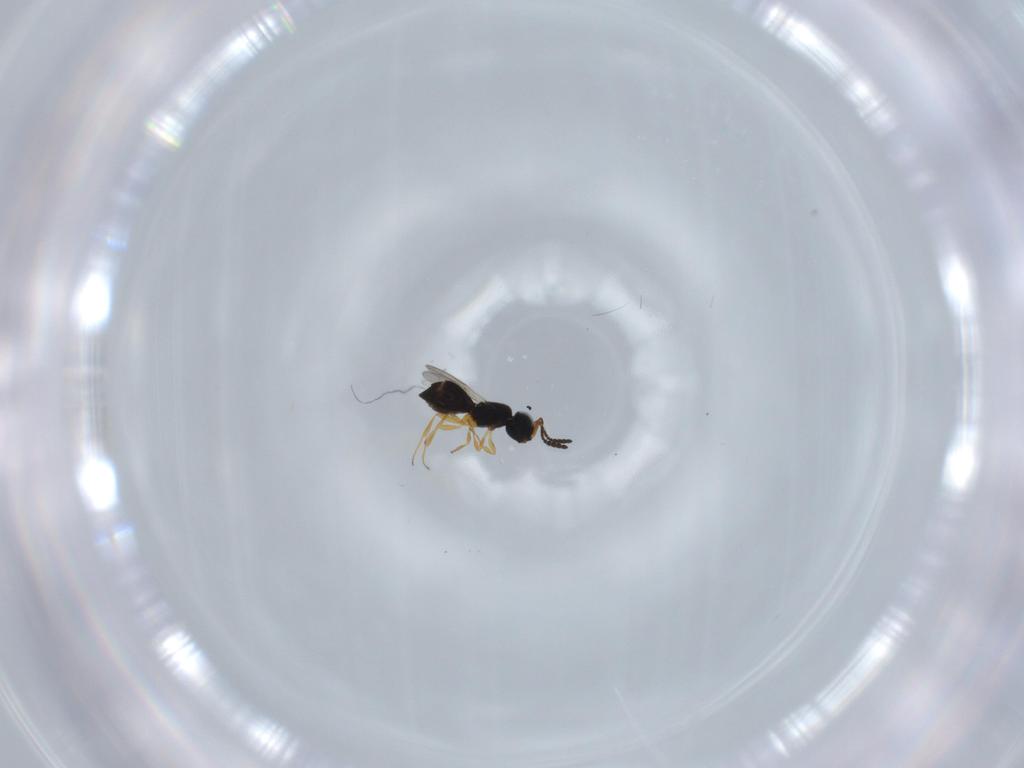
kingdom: Animalia
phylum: Arthropoda
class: Insecta
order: Hymenoptera
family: Scelionidae
